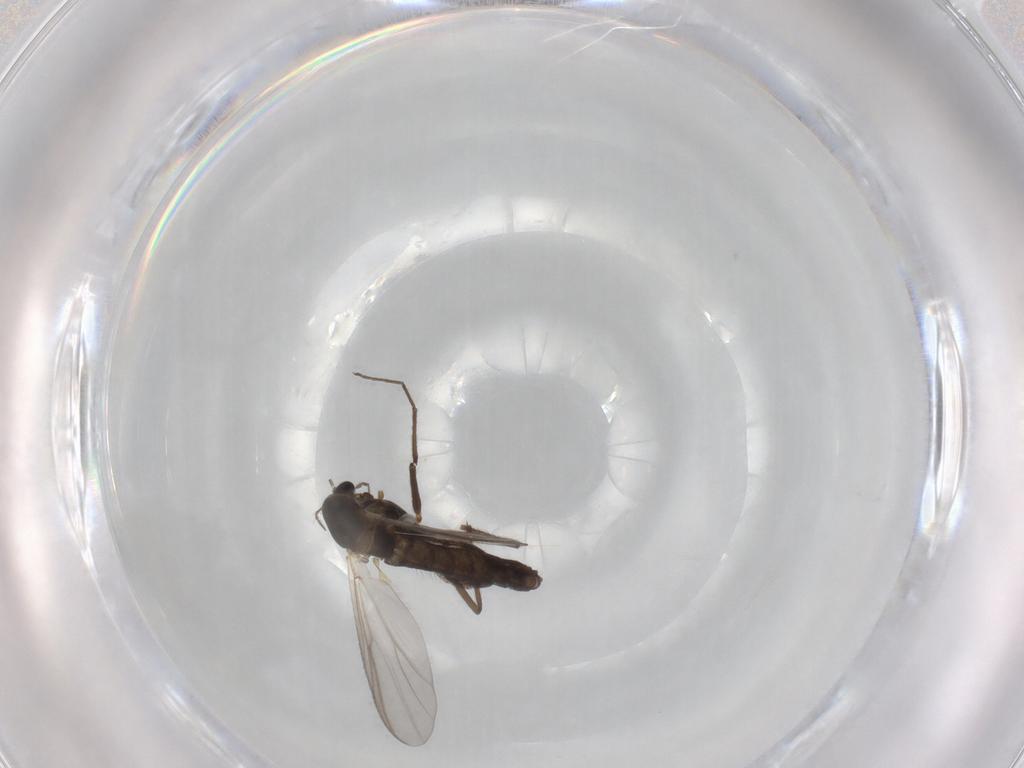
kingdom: Animalia
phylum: Arthropoda
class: Insecta
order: Diptera
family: Chironomidae
